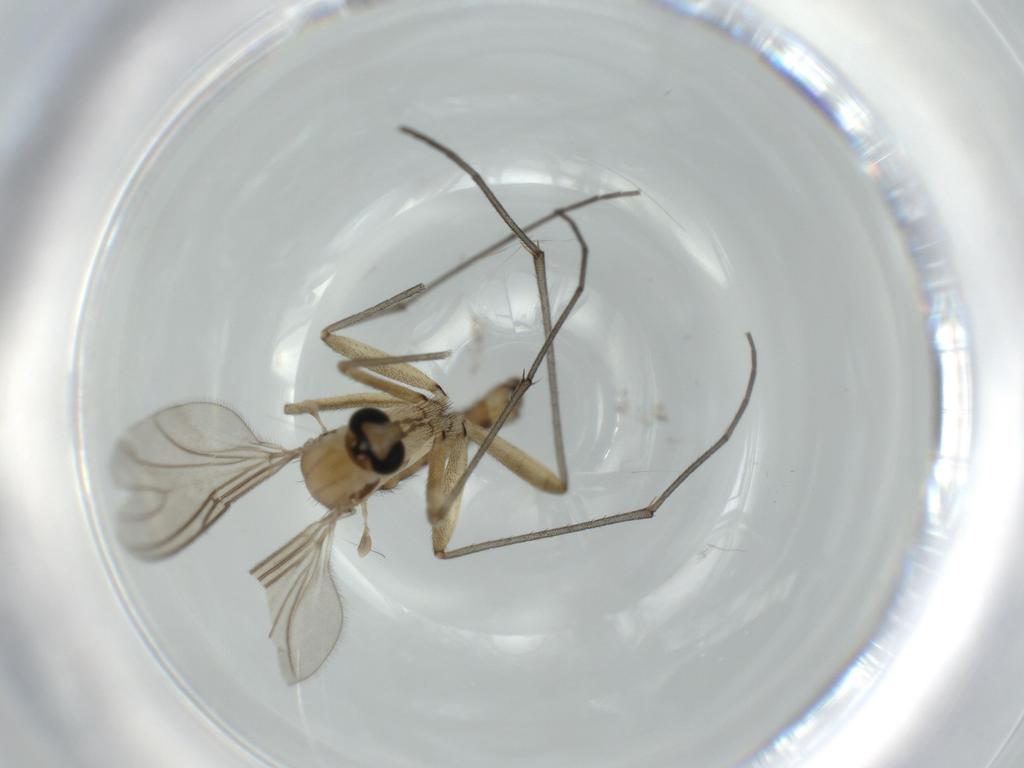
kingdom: Animalia
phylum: Arthropoda
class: Insecta
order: Diptera
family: Sciaridae
